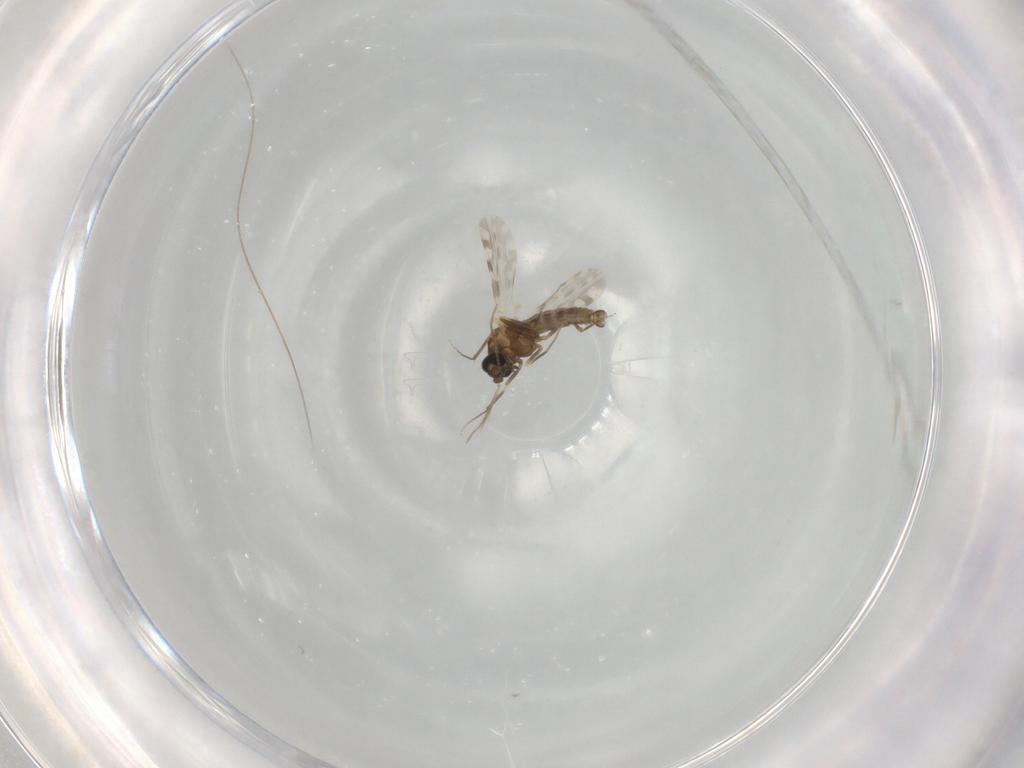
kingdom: Animalia
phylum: Arthropoda
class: Insecta
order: Diptera
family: Ceratopogonidae
